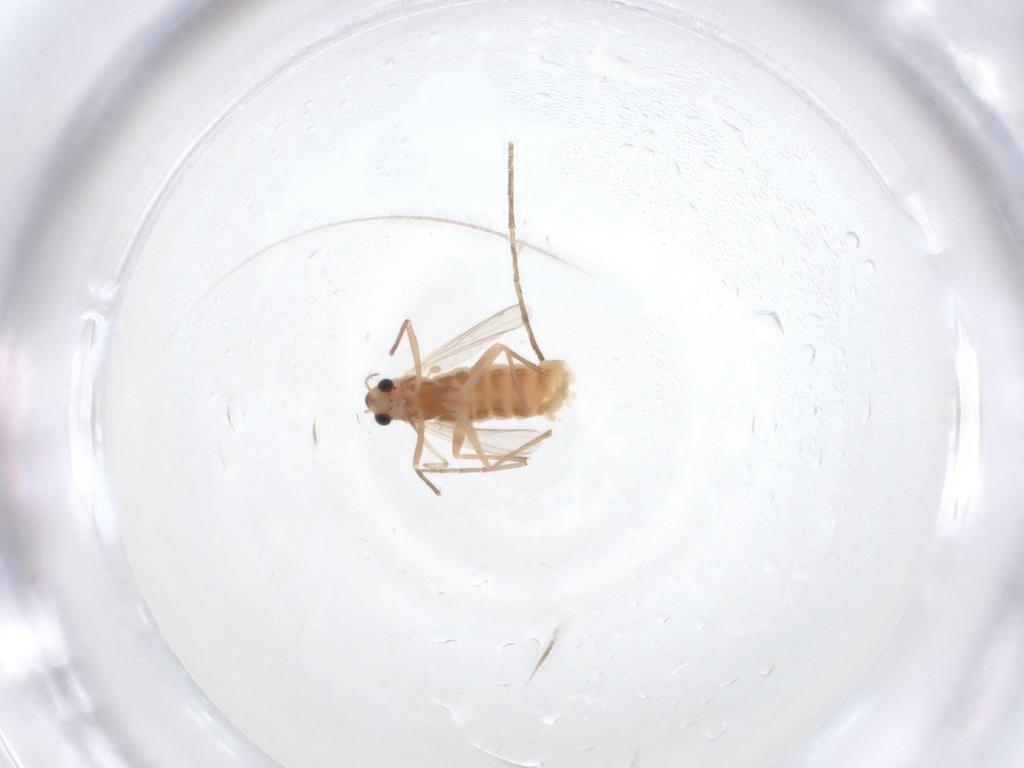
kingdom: Animalia
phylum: Arthropoda
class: Insecta
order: Diptera
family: Chironomidae
